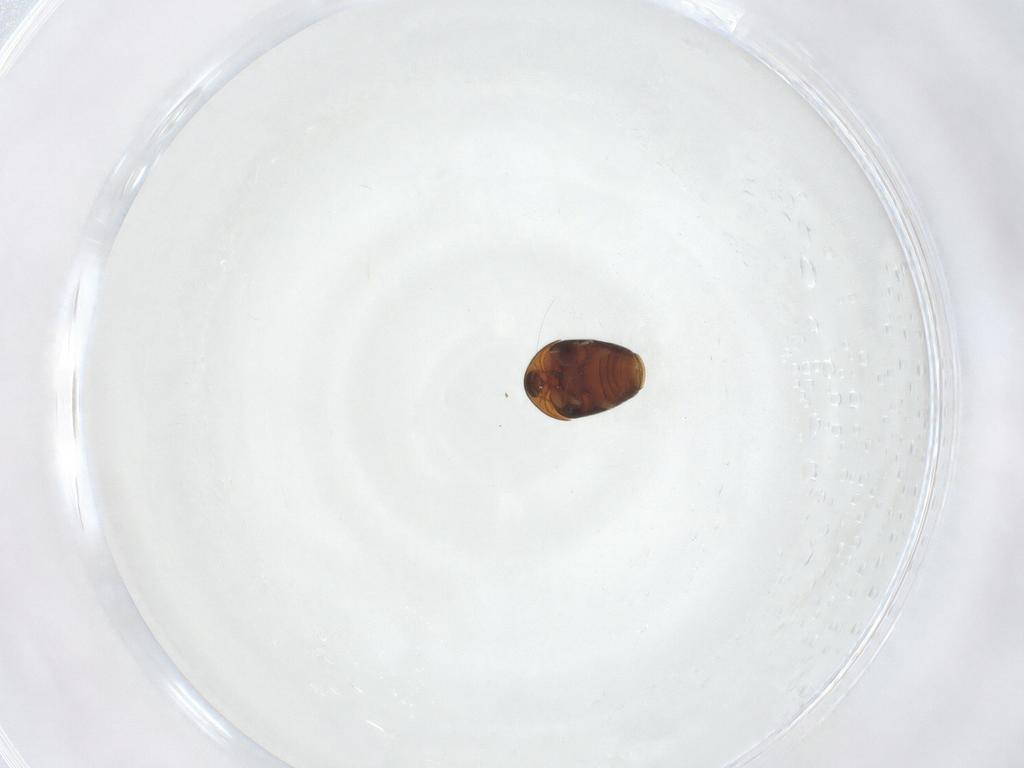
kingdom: Animalia
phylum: Arthropoda
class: Insecta
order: Coleoptera
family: Corylophidae
